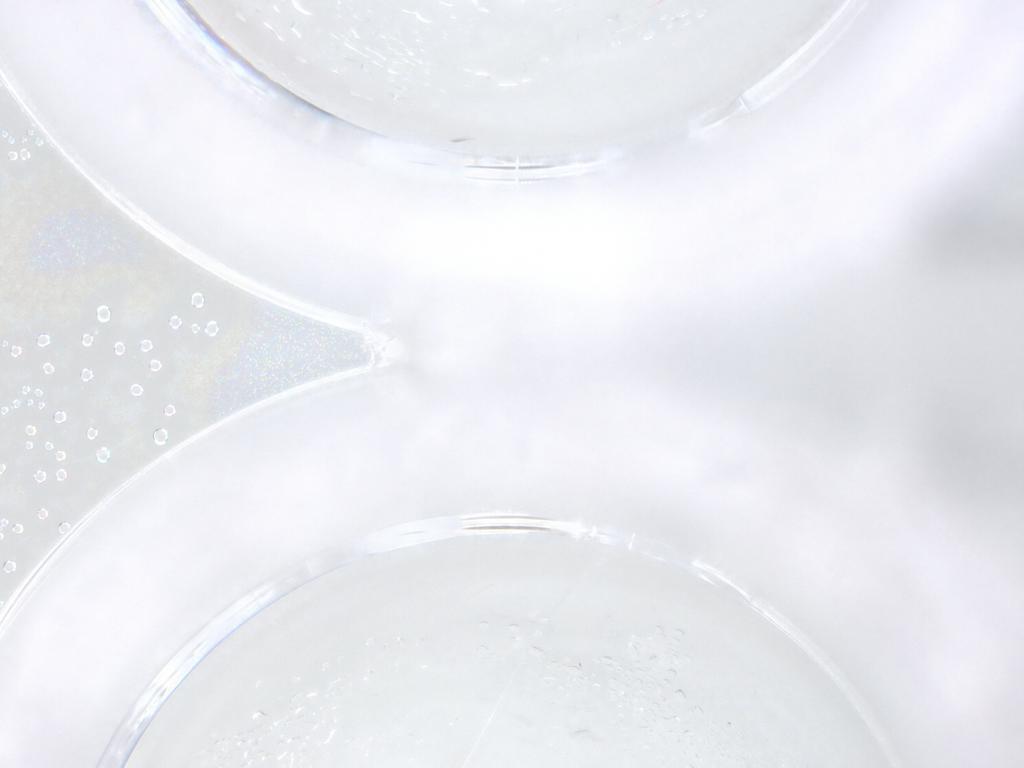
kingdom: Animalia
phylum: Arthropoda
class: Insecta
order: Diptera
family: Psychodidae
